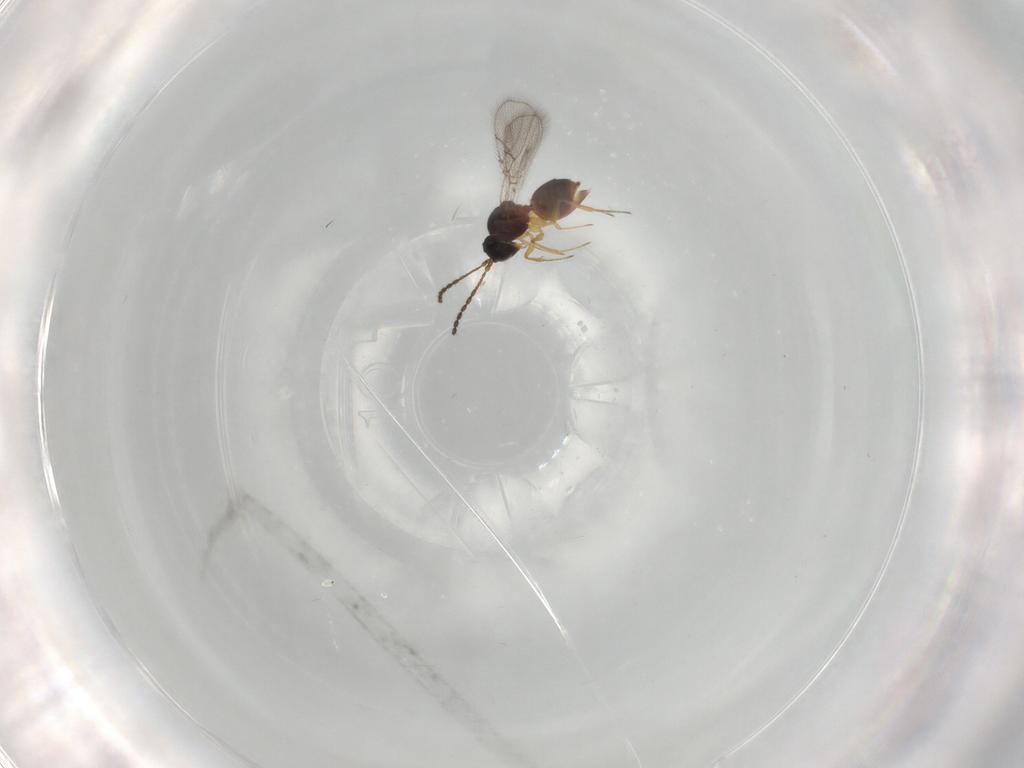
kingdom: Animalia
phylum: Arthropoda
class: Insecta
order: Hymenoptera
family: Figitidae
